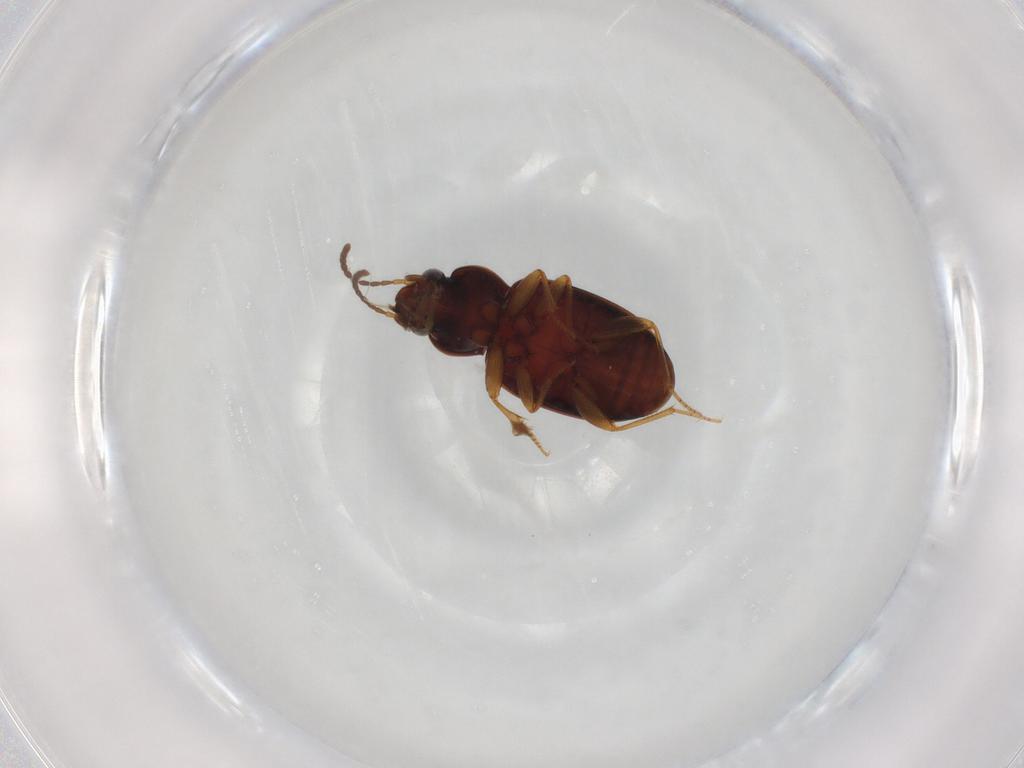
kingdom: Animalia
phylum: Arthropoda
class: Insecta
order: Coleoptera
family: Carabidae
